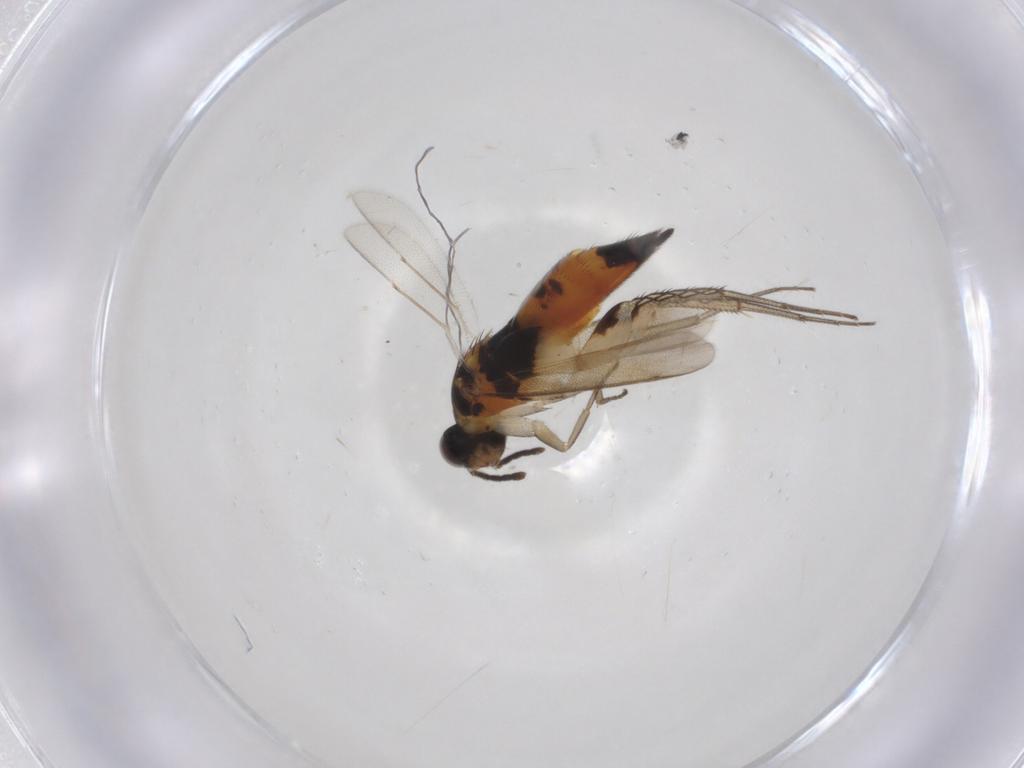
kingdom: Animalia
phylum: Arthropoda
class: Insecta
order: Hymenoptera
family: Eulophidae
